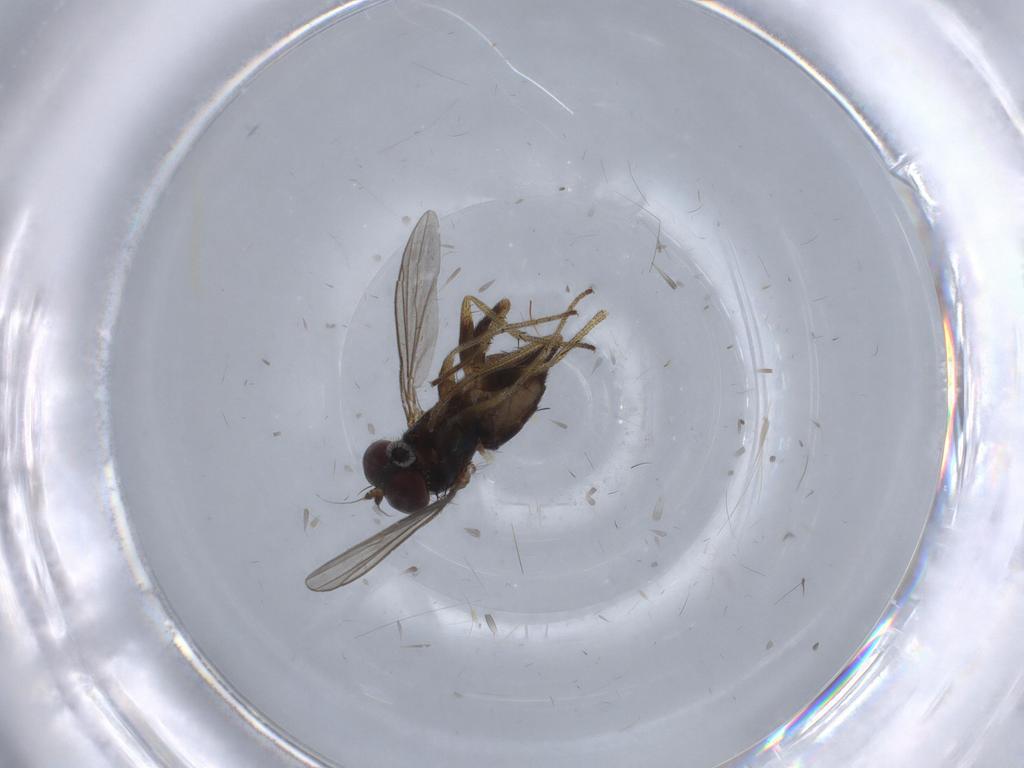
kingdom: Animalia
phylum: Arthropoda
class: Insecta
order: Diptera
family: Dolichopodidae
